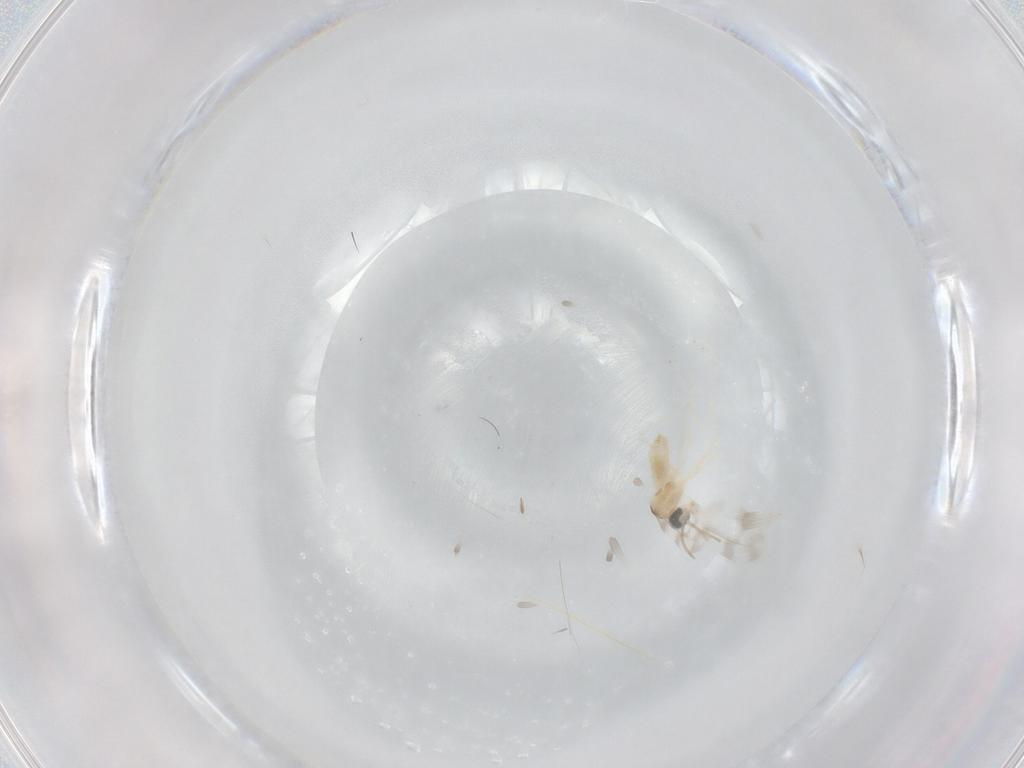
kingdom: Animalia
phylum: Arthropoda
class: Insecta
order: Diptera
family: Cecidomyiidae
